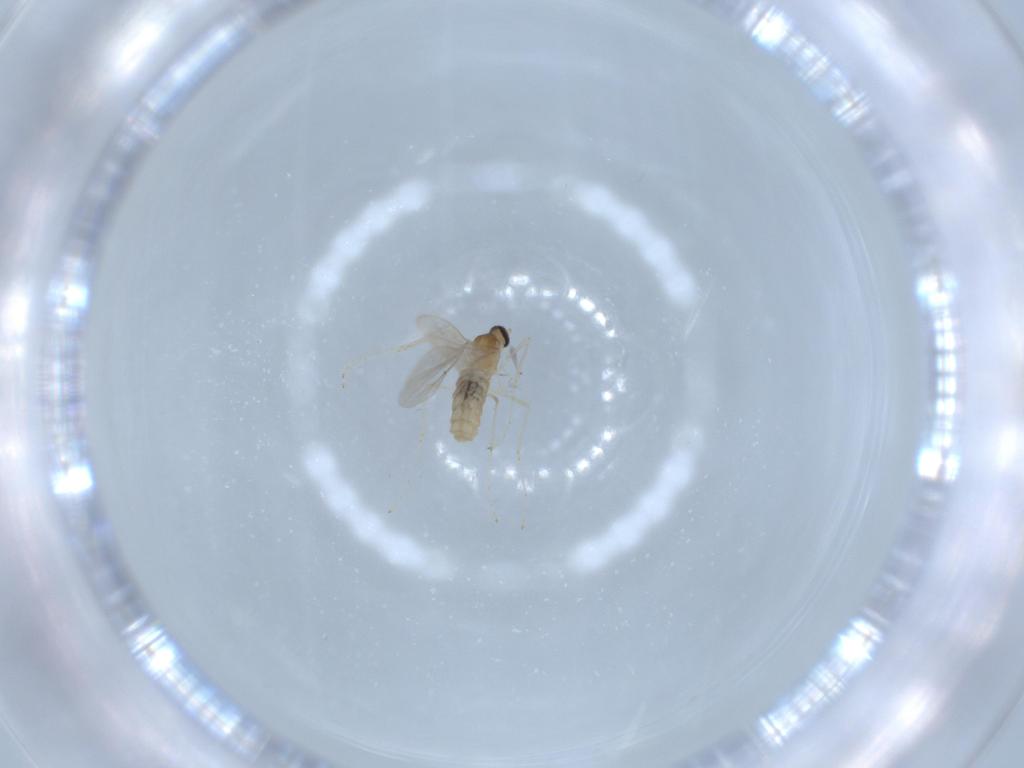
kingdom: Animalia
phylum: Arthropoda
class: Insecta
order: Diptera
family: Cecidomyiidae
